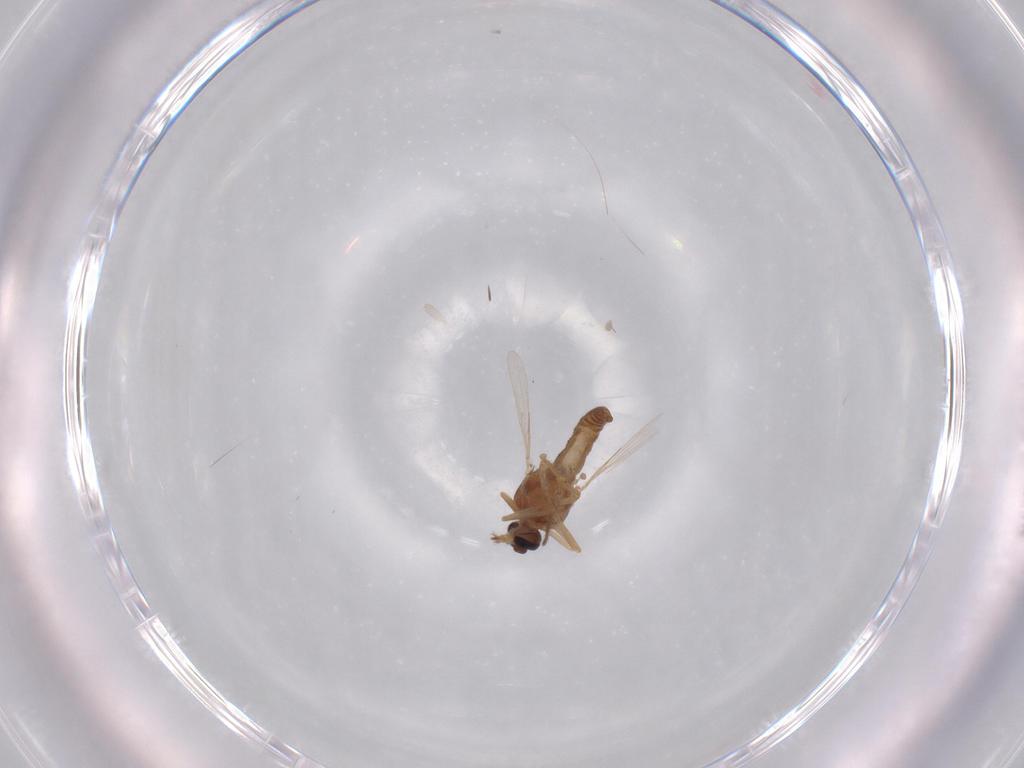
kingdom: Animalia
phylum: Arthropoda
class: Insecta
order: Diptera
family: Ceratopogonidae
